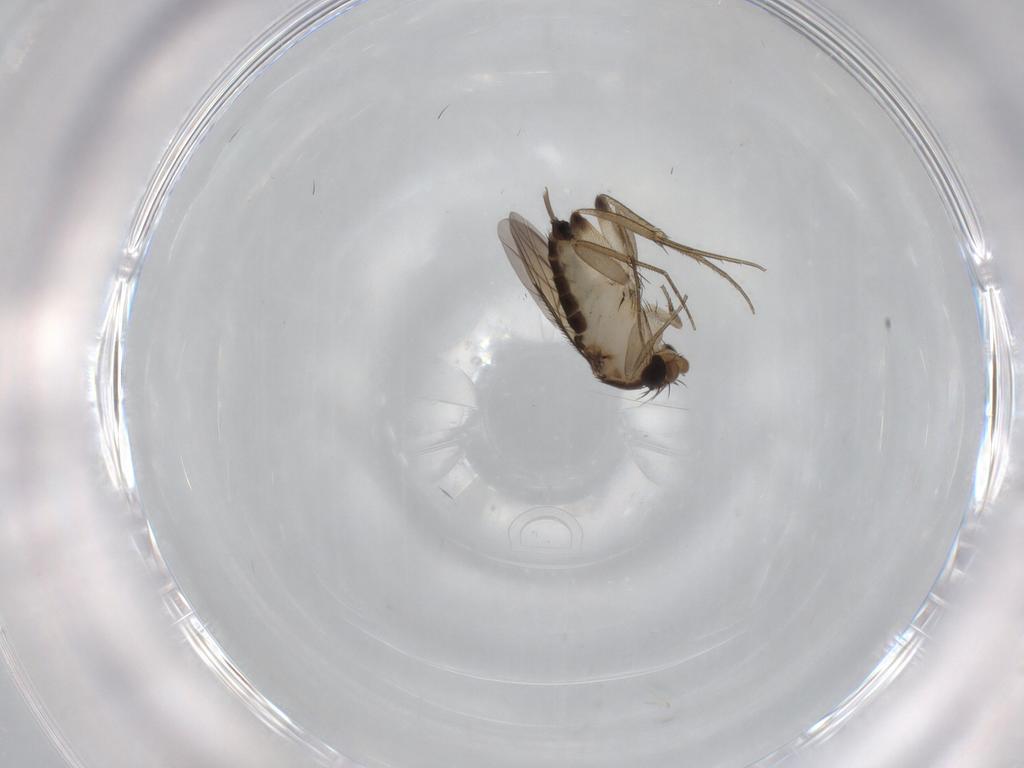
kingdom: Animalia
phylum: Arthropoda
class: Insecta
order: Diptera
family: Phoridae
